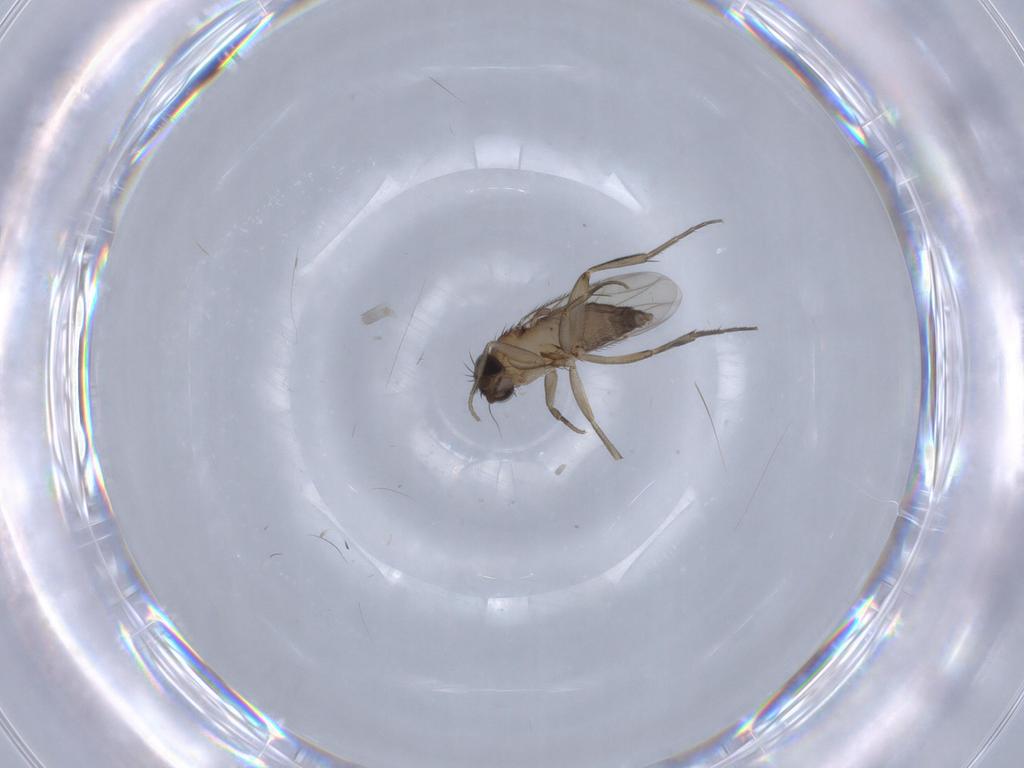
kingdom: Animalia
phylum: Arthropoda
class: Insecta
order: Diptera
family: Phoridae
